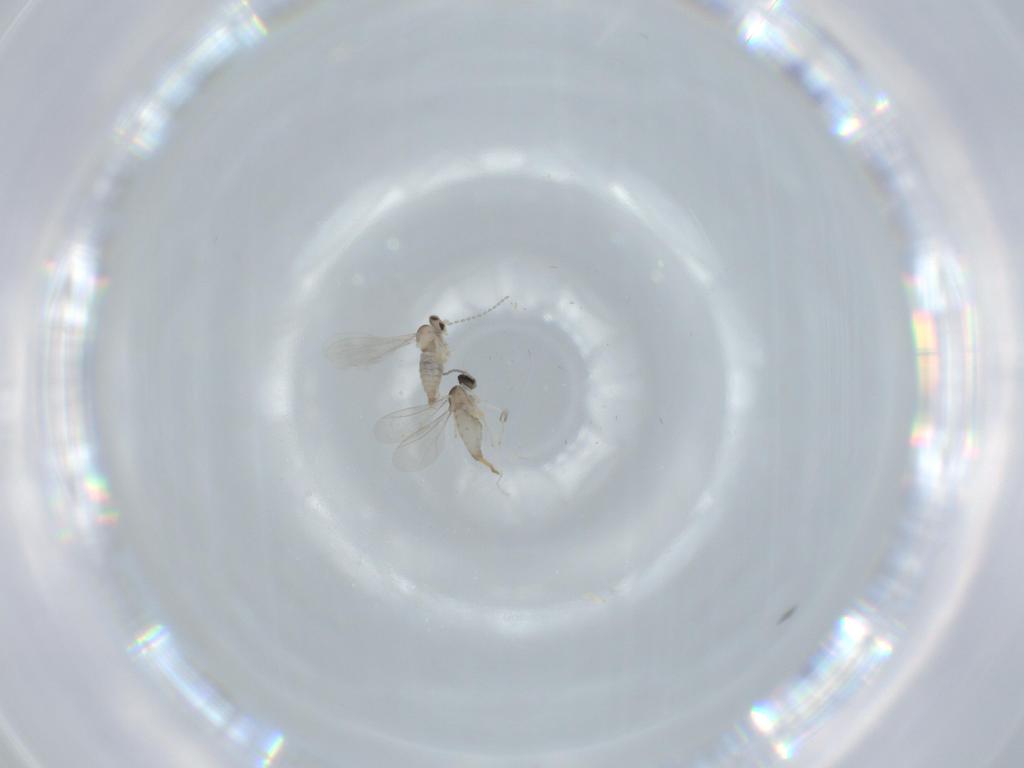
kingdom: Animalia
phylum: Arthropoda
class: Insecta
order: Diptera
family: Cecidomyiidae
